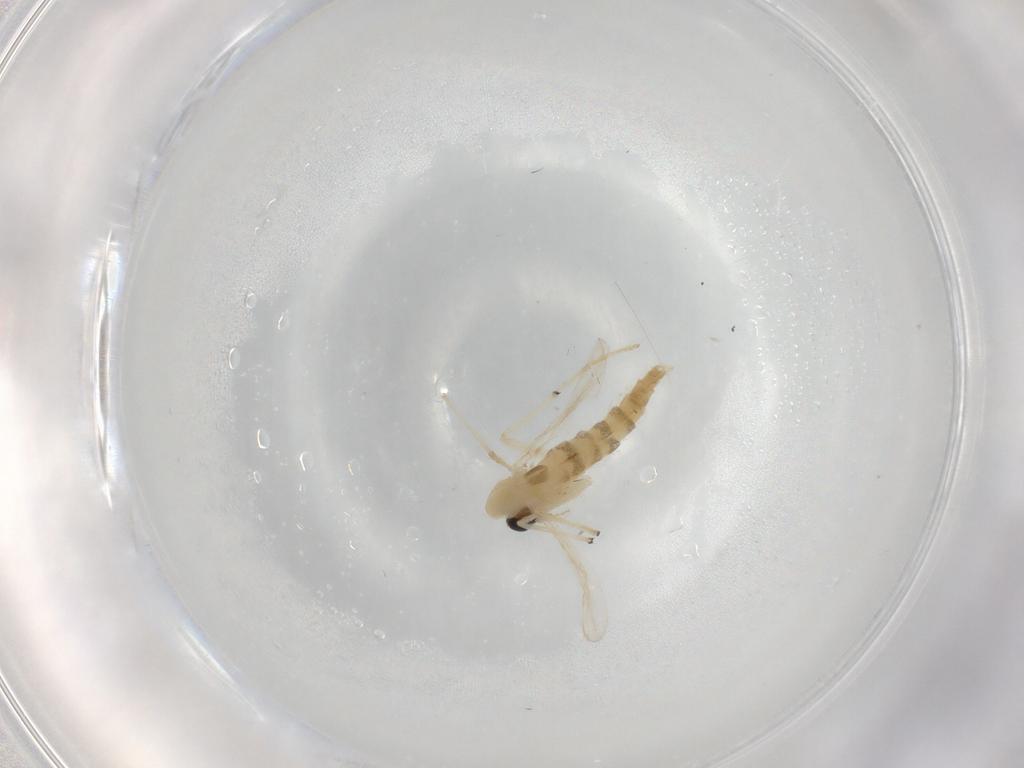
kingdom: Animalia
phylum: Arthropoda
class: Insecta
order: Diptera
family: Chironomidae
